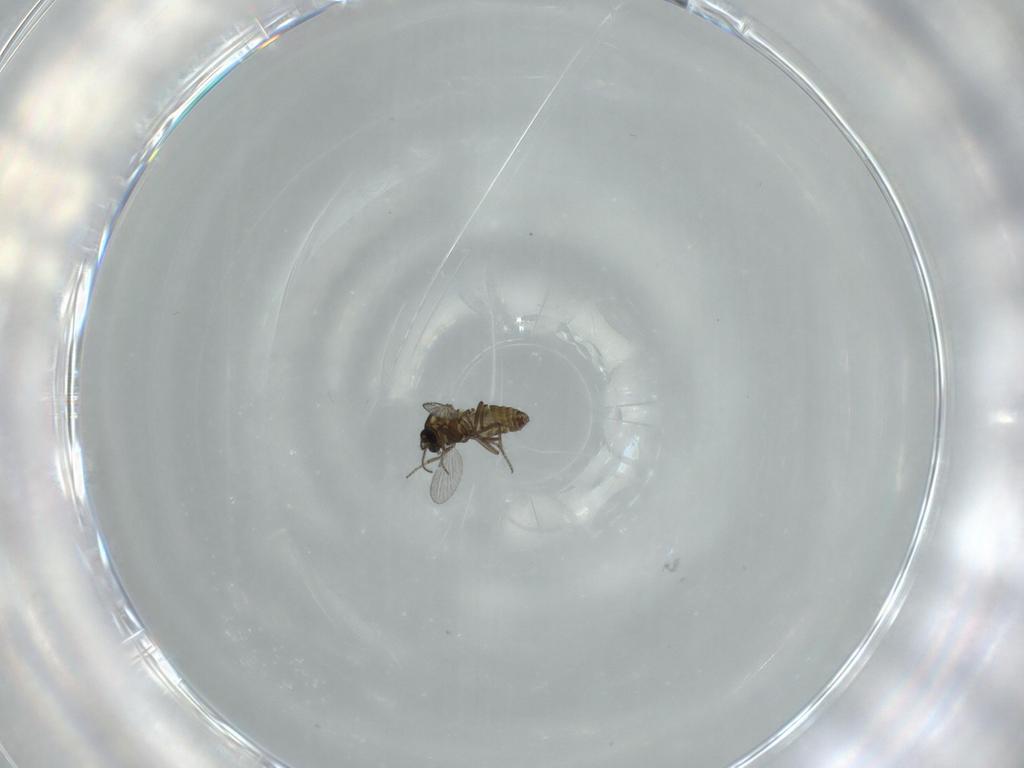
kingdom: Animalia
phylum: Arthropoda
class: Insecta
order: Diptera
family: Ceratopogonidae
